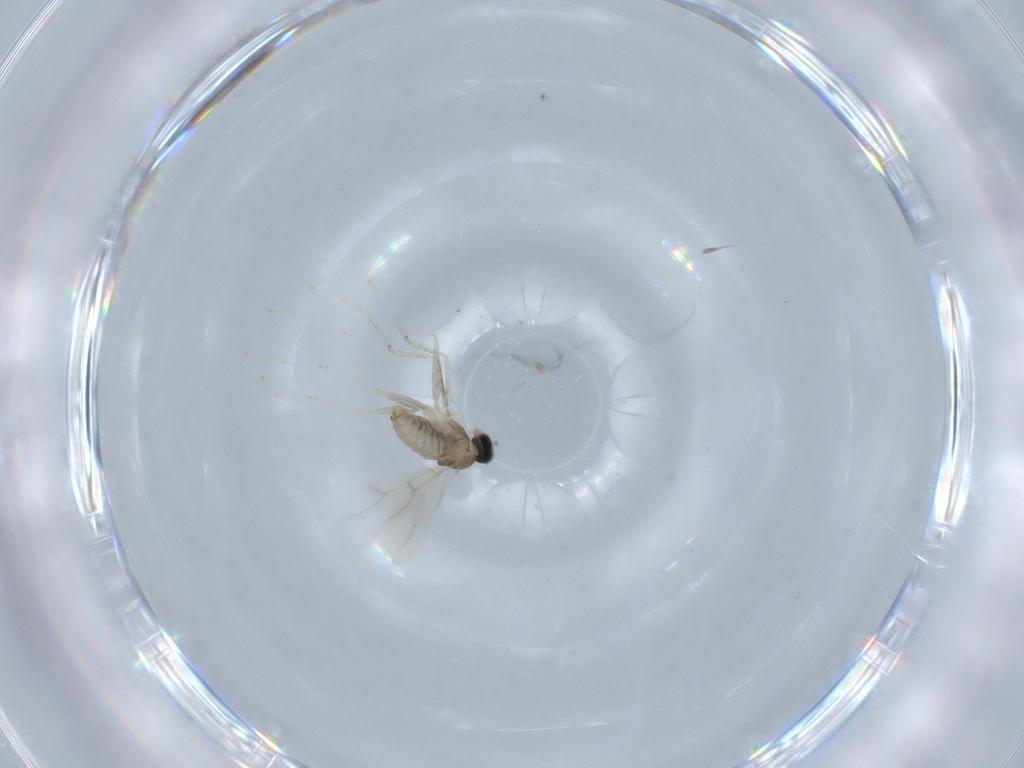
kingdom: Animalia
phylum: Arthropoda
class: Insecta
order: Diptera
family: Cecidomyiidae
